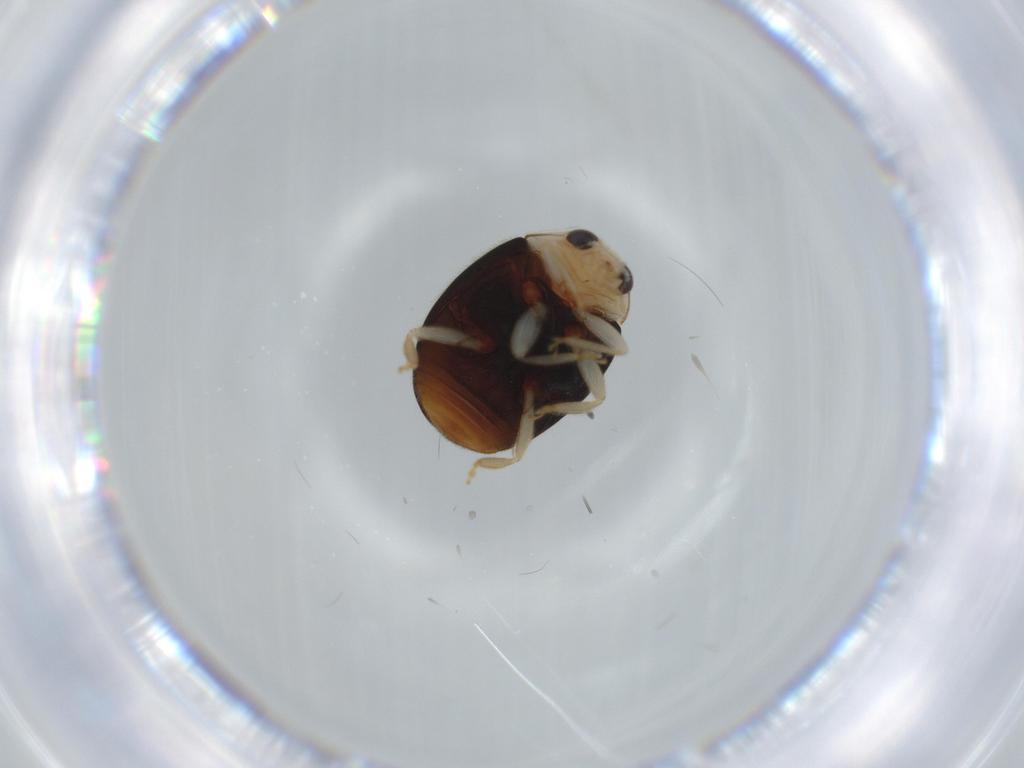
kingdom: Animalia
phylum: Arthropoda
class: Insecta
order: Coleoptera
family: Coccinellidae
